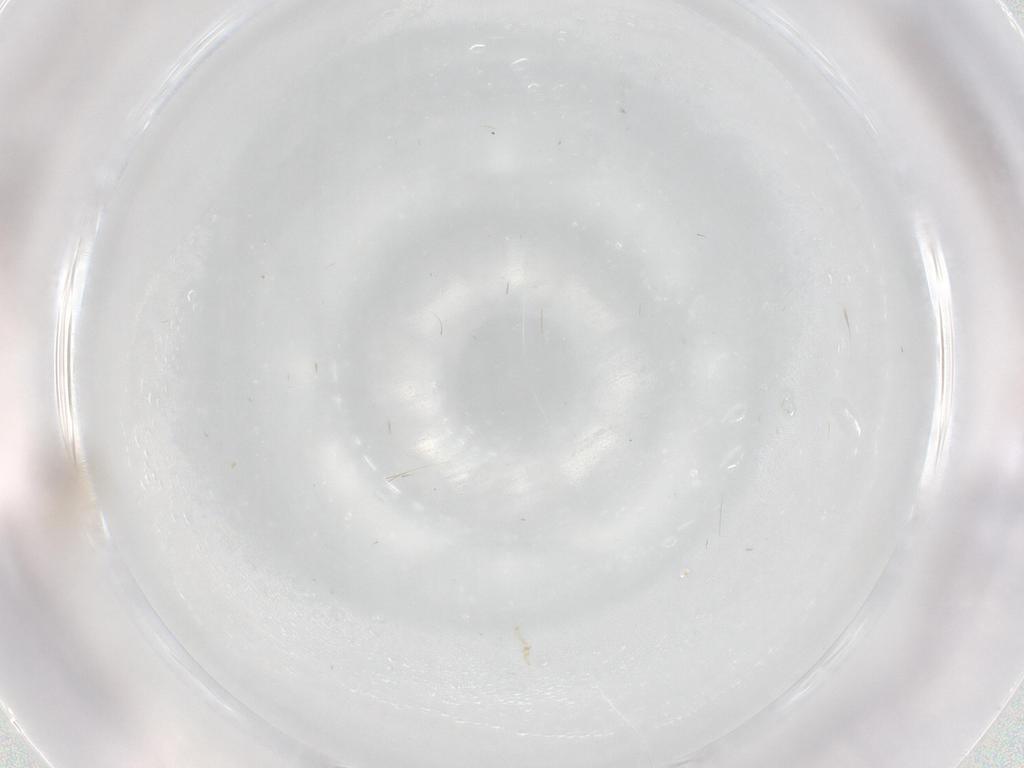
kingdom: Animalia
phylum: Arthropoda
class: Insecta
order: Diptera
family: Cecidomyiidae
